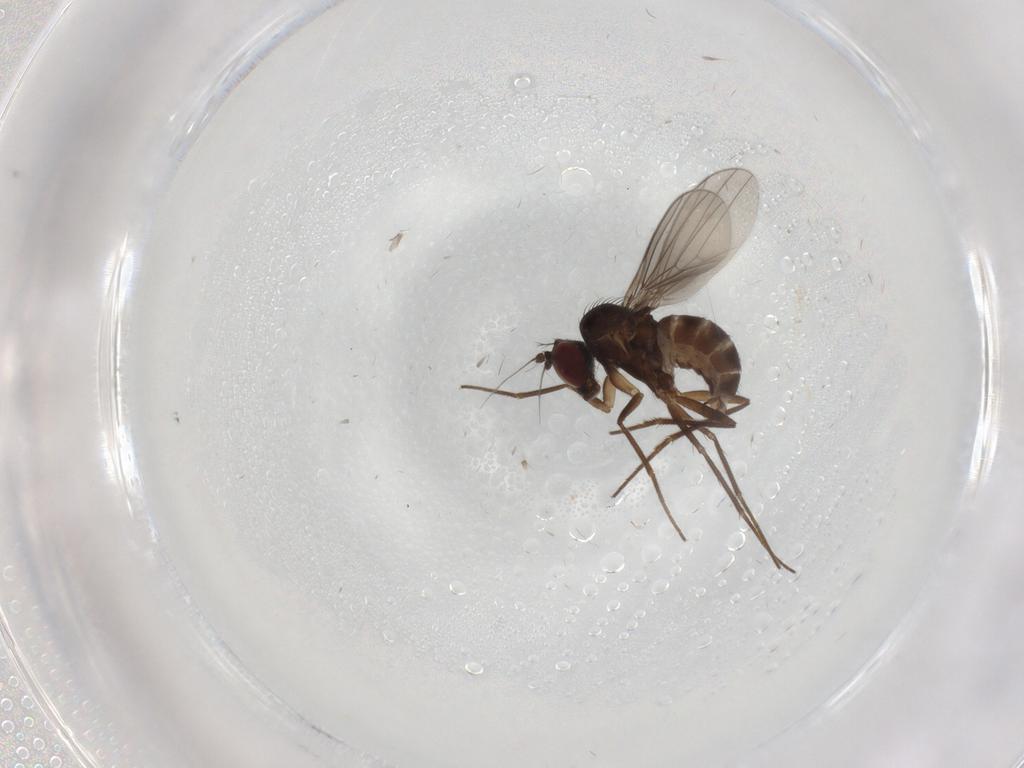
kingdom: Animalia
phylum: Arthropoda
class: Insecta
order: Diptera
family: Dolichopodidae
